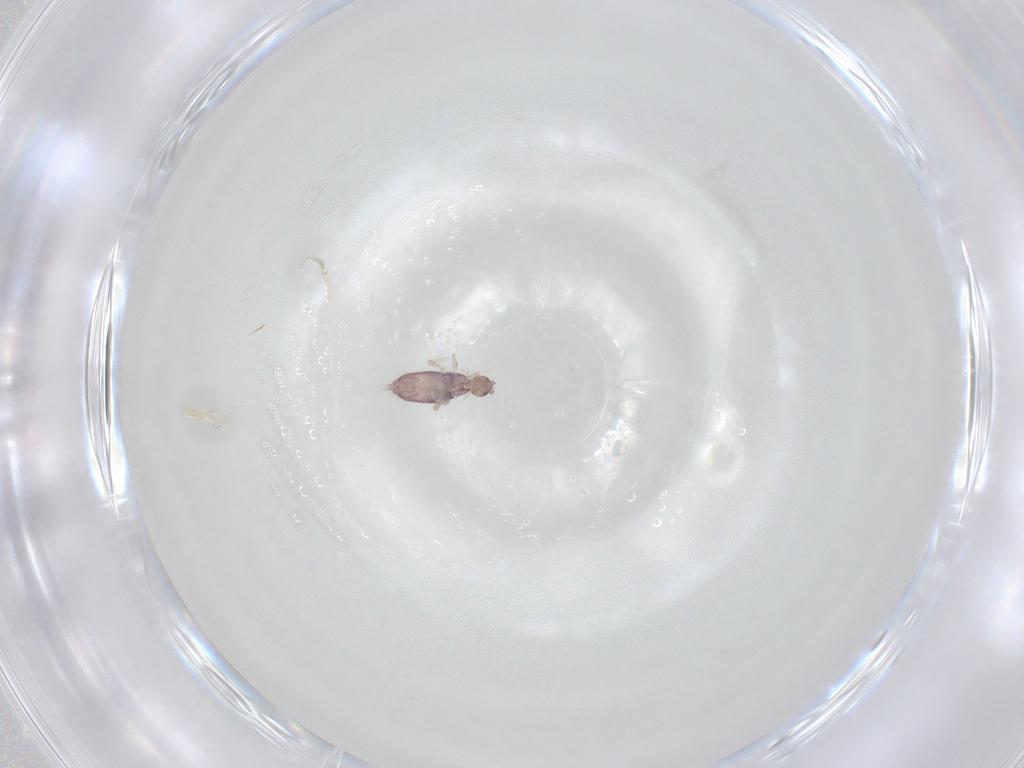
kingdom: Animalia
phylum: Arthropoda
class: Collembola
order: Entomobryomorpha
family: Entomobryidae
